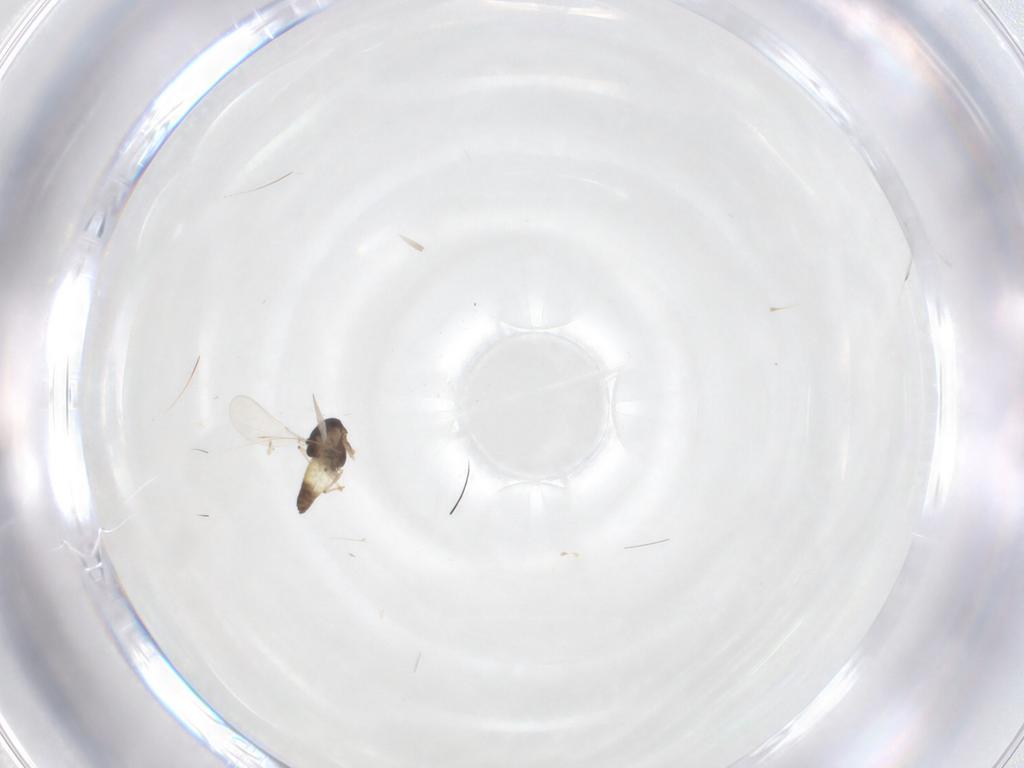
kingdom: Animalia
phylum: Arthropoda
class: Insecta
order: Diptera
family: Chironomidae
